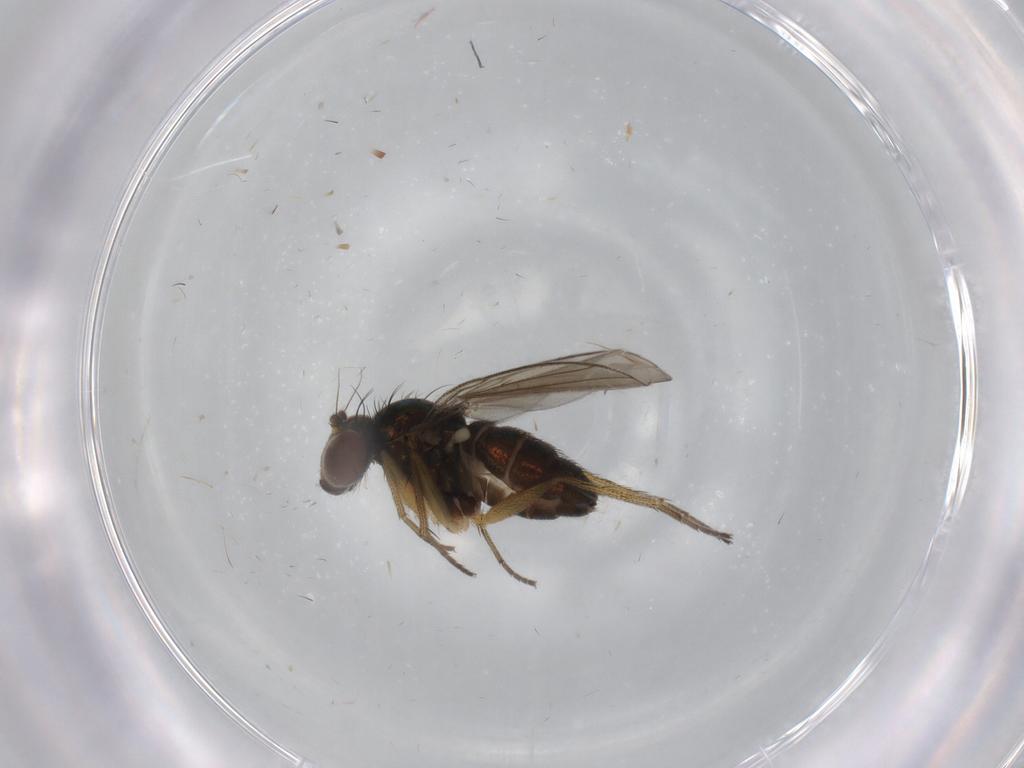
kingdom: Animalia
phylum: Arthropoda
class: Insecta
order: Diptera
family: Dolichopodidae
